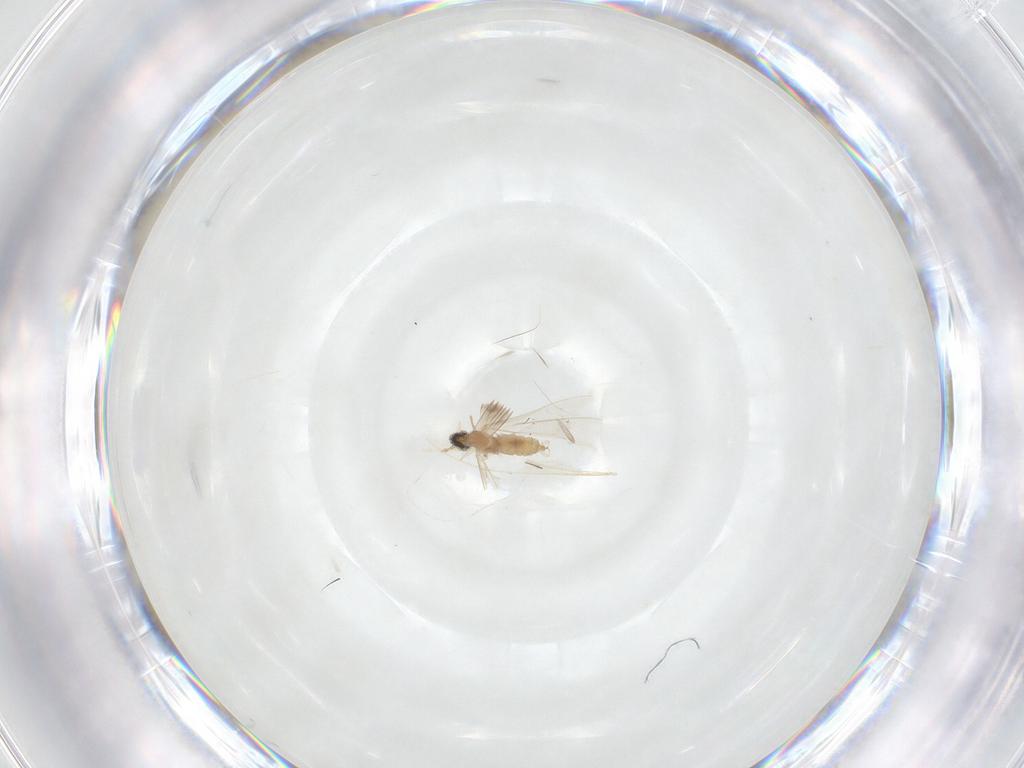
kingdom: Animalia
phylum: Arthropoda
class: Insecta
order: Diptera
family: Cecidomyiidae
